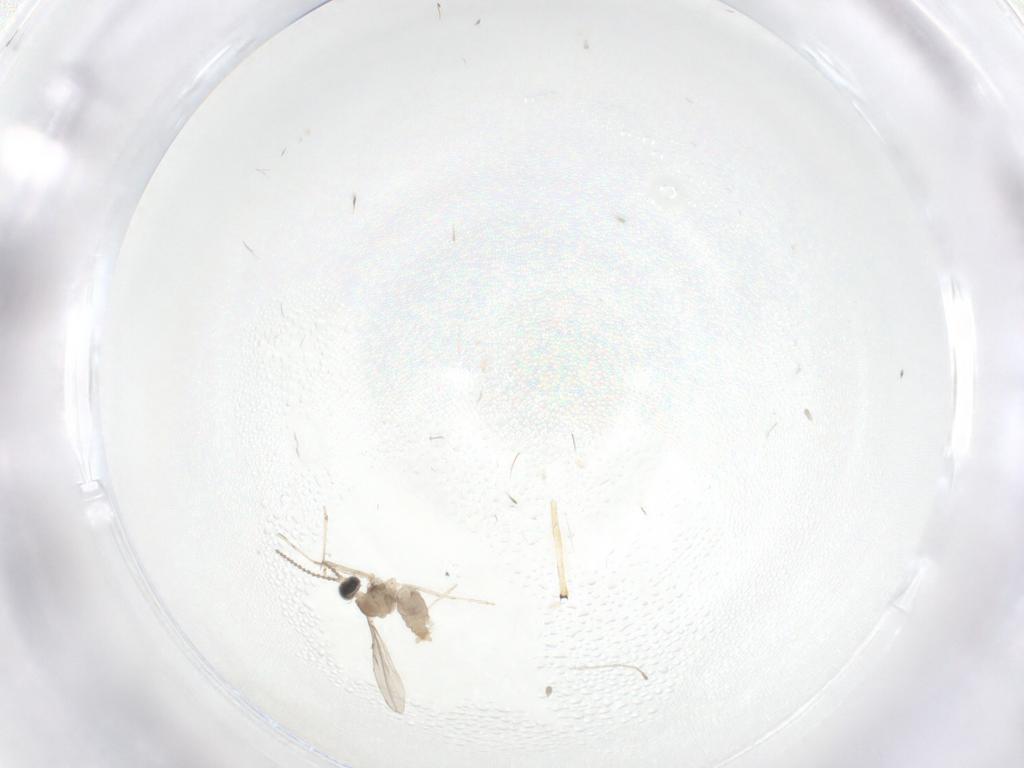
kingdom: Animalia
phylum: Arthropoda
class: Insecta
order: Diptera
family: Cecidomyiidae
